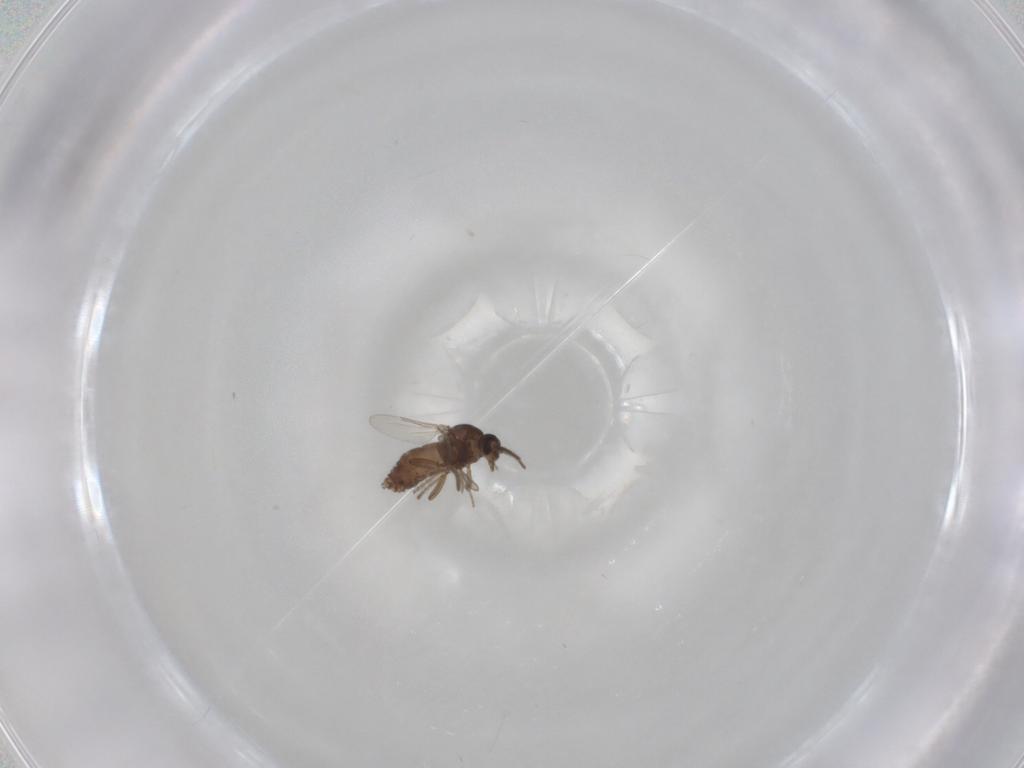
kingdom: Animalia
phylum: Arthropoda
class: Insecta
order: Diptera
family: Ceratopogonidae
